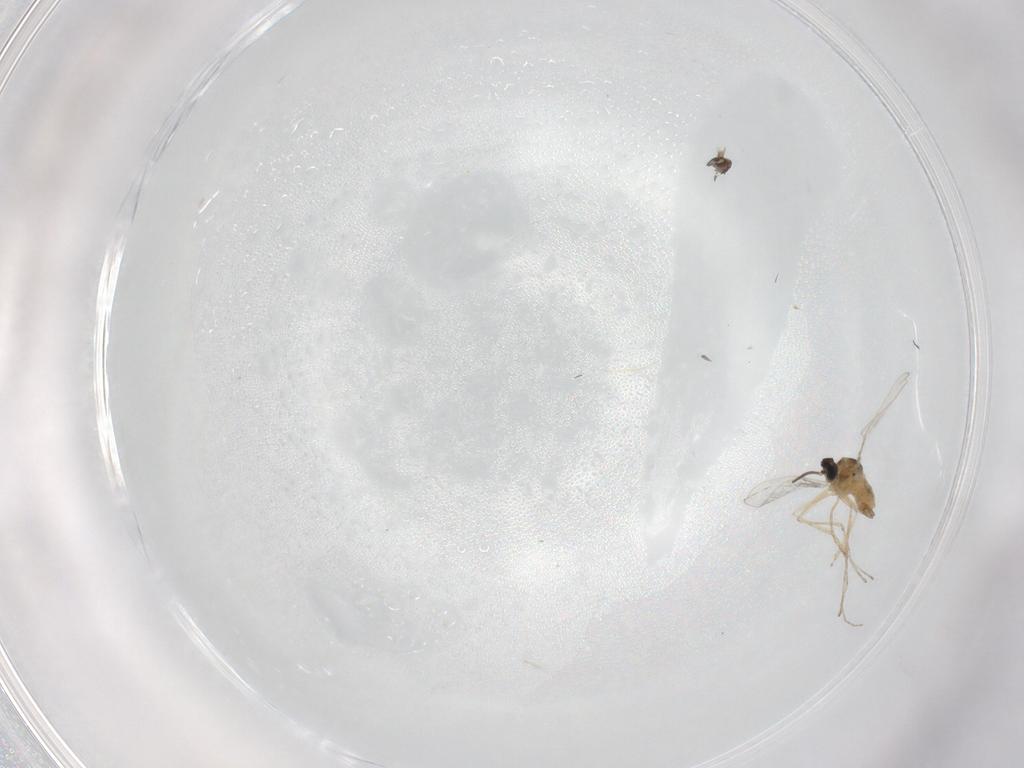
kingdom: Animalia
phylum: Arthropoda
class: Insecta
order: Diptera
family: Cecidomyiidae
